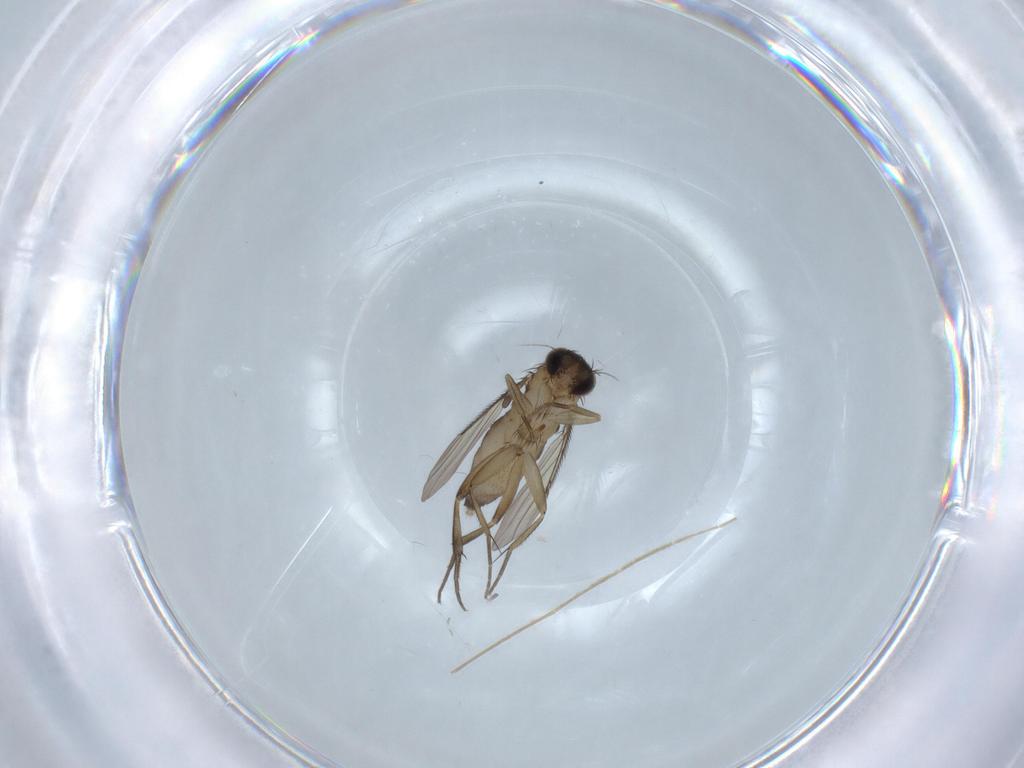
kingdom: Animalia
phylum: Arthropoda
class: Insecta
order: Diptera
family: Phoridae
